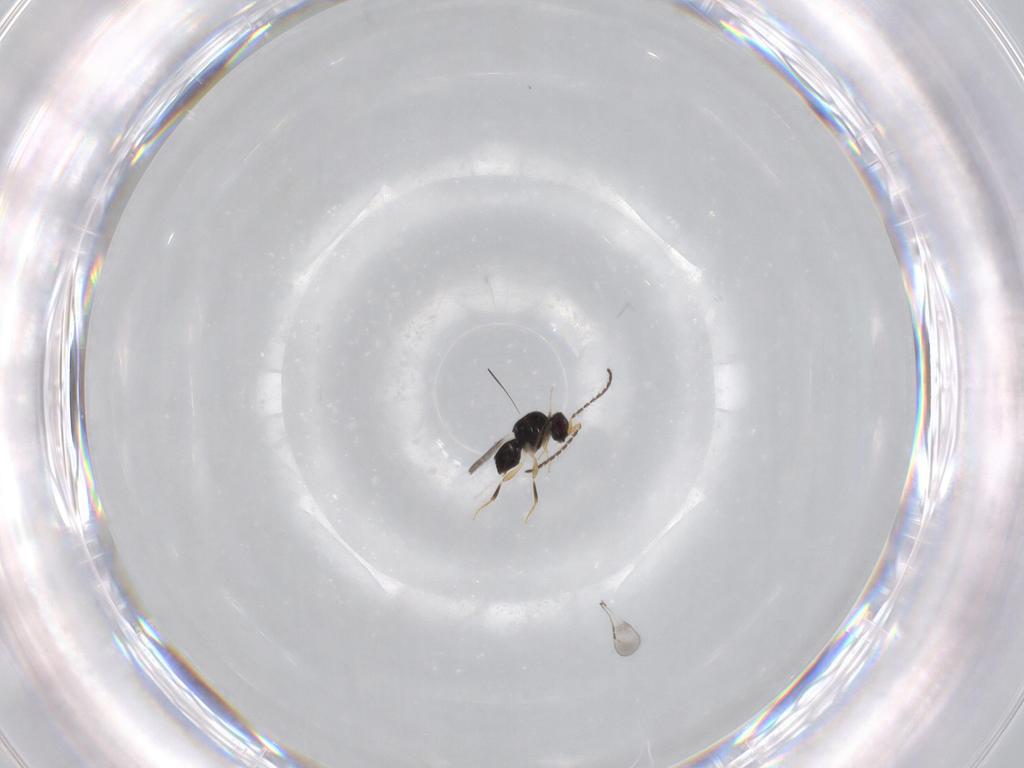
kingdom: Animalia
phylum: Arthropoda
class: Insecta
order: Hymenoptera
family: Ceraphronidae
